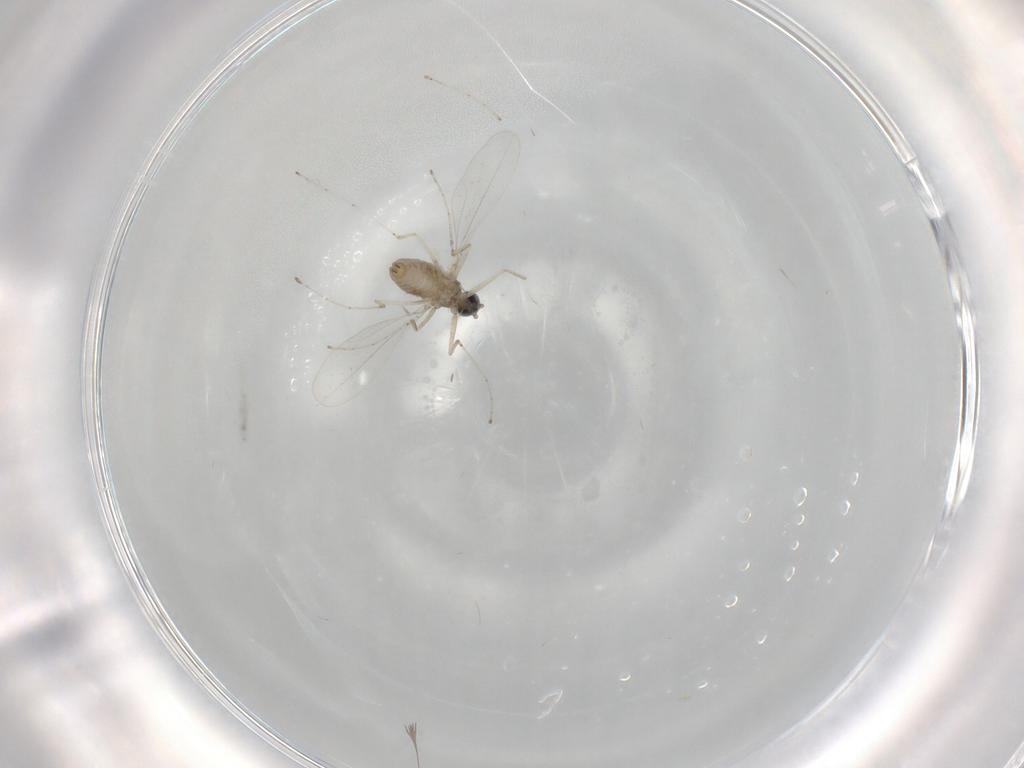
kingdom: Animalia
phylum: Arthropoda
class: Insecta
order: Diptera
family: Cecidomyiidae
